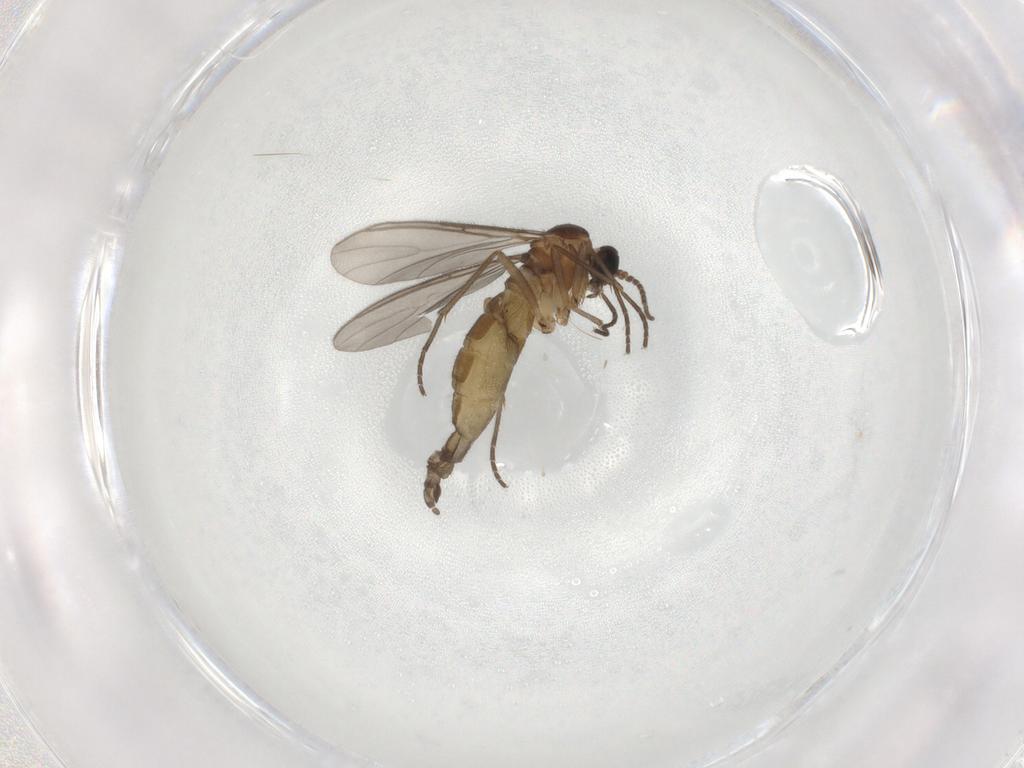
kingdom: Animalia
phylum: Arthropoda
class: Insecta
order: Diptera
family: Sciaridae
